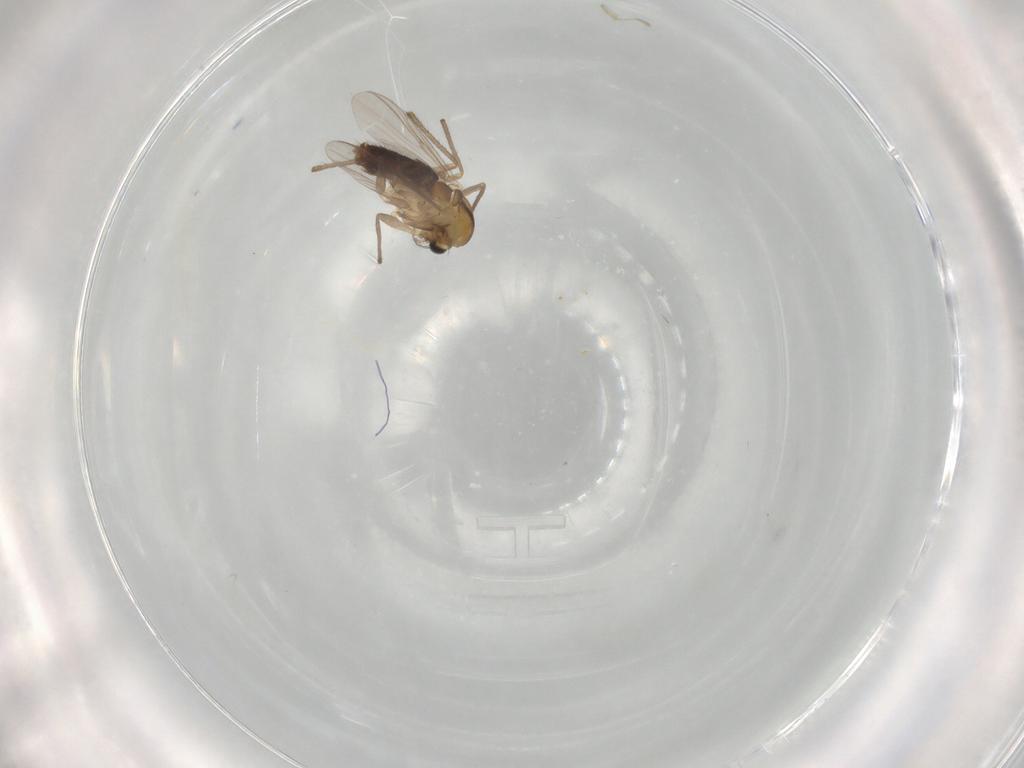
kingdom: Animalia
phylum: Arthropoda
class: Insecta
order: Diptera
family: Chironomidae
